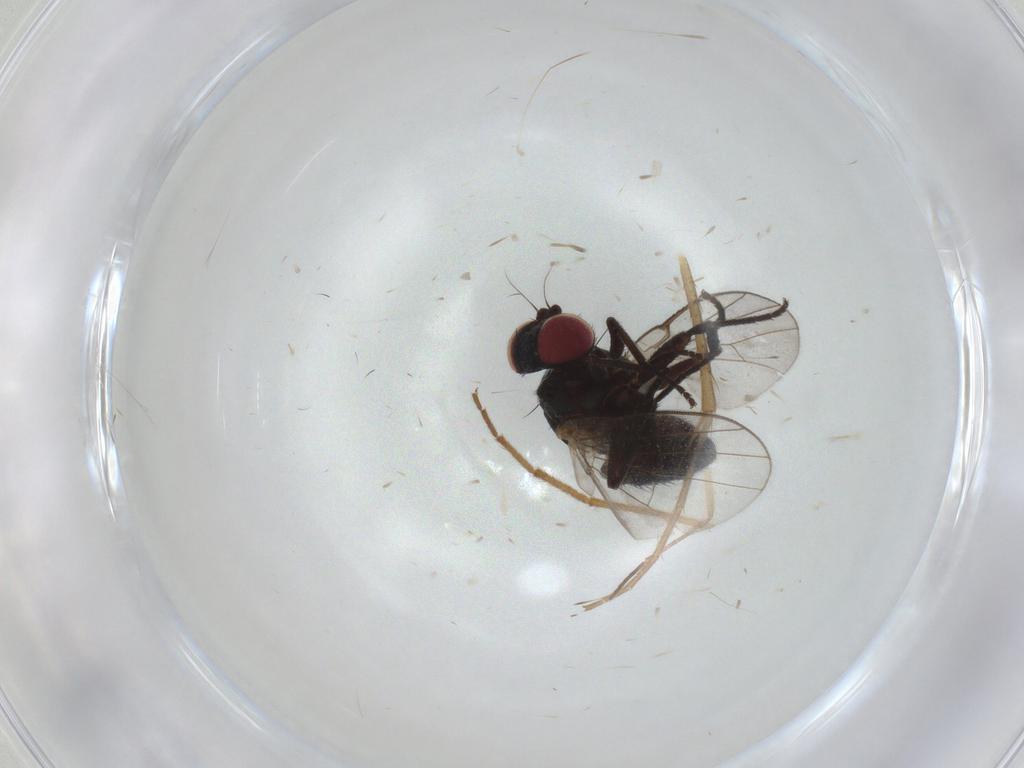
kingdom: Animalia
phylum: Arthropoda
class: Insecta
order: Diptera
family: Agromyzidae
